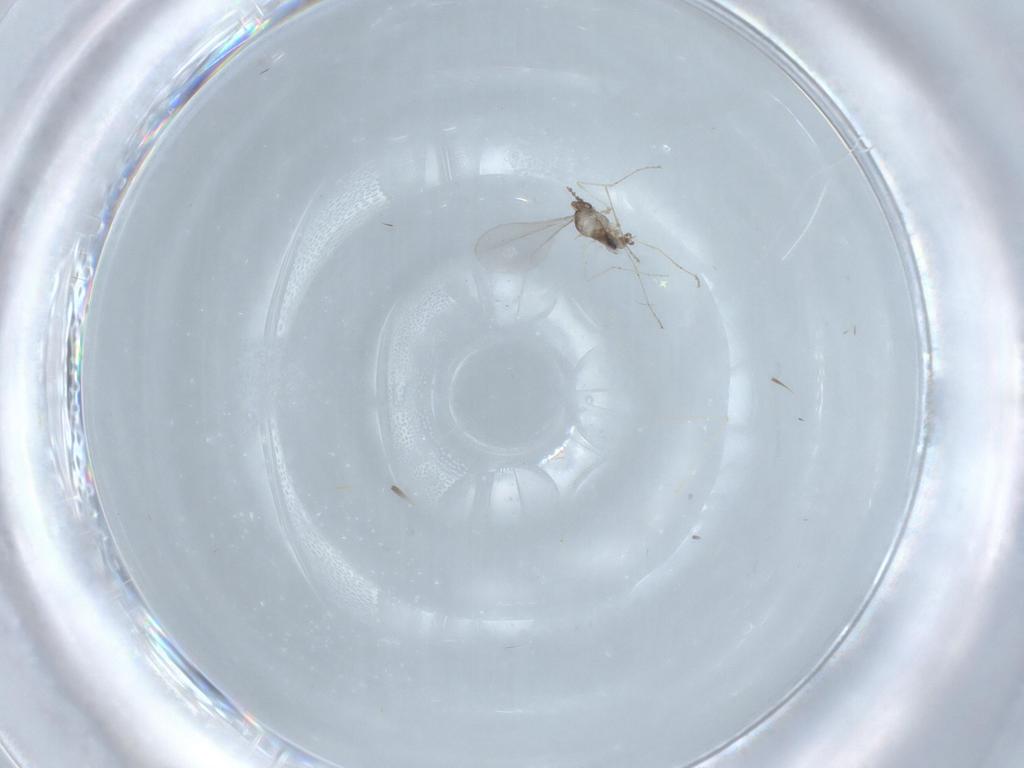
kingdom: Animalia
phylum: Arthropoda
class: Insecta
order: Diptera
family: Cecidomyiidae
